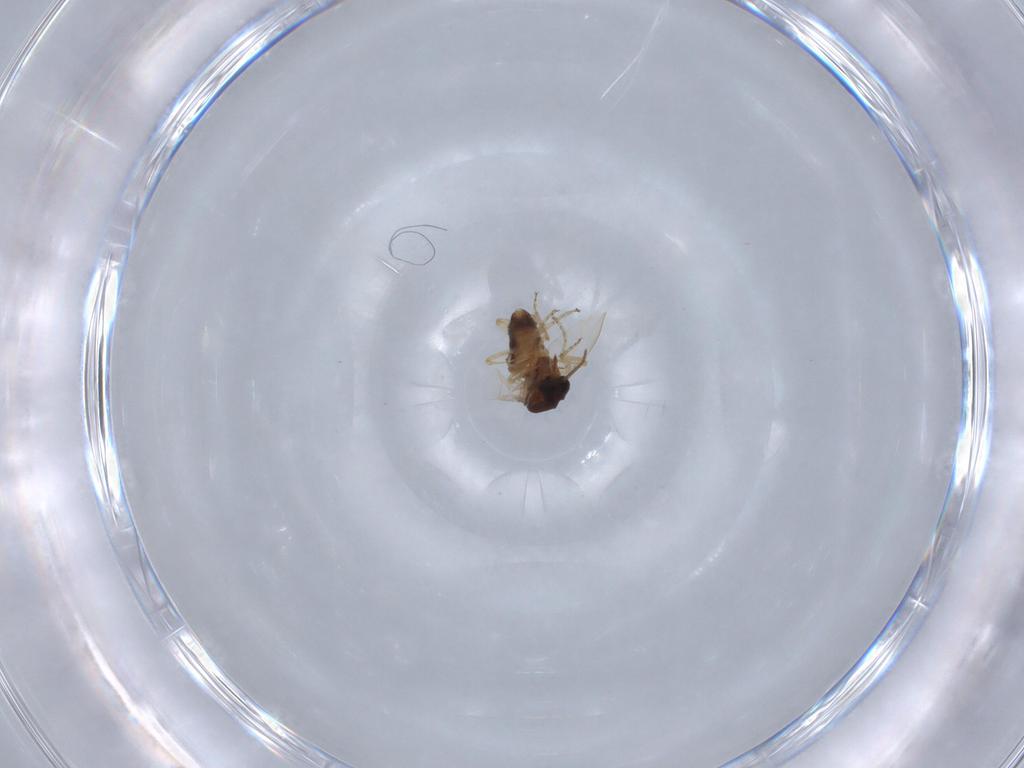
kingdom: Animalia
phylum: Arthropoda
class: Insecta
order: Diptera
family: Ceratopogonidae
